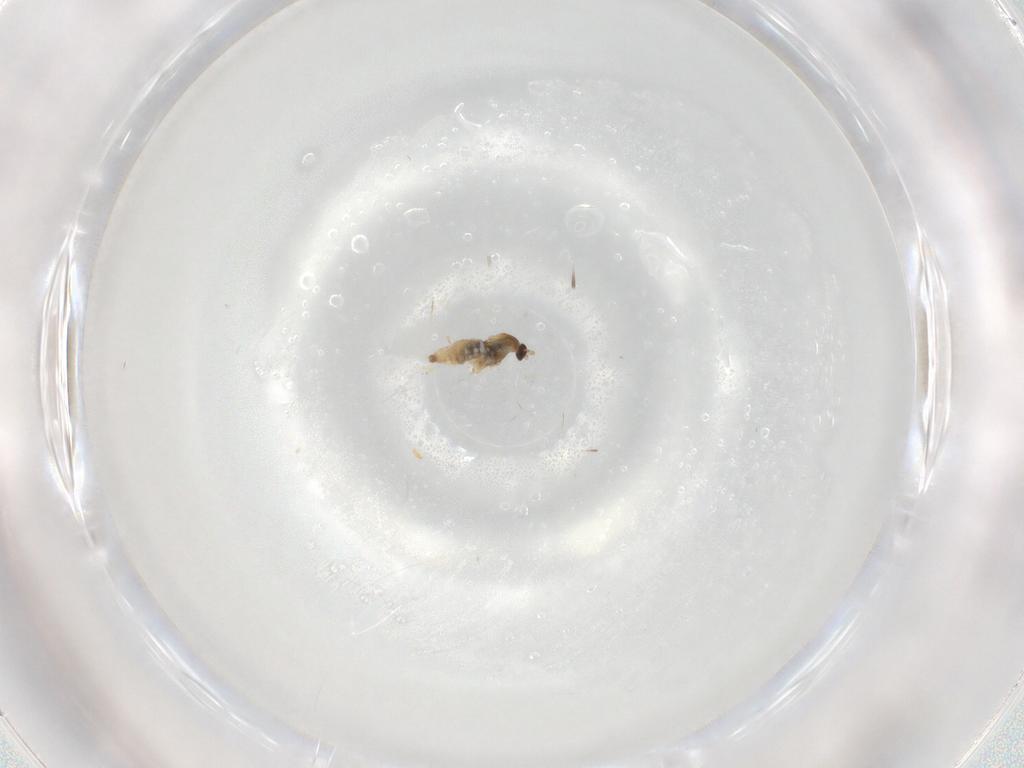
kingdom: Animalia
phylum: Arthropoda
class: Insecta
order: Diptera
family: Cecidomyiidae
